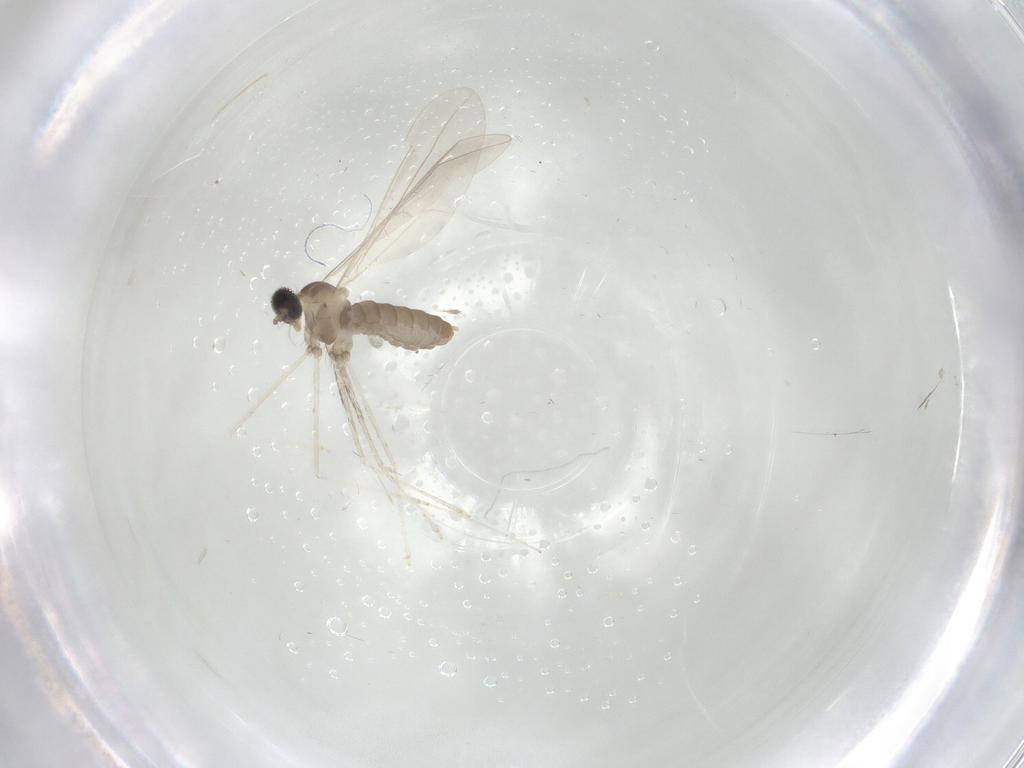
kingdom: Animalia
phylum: Arthropoda
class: Insecta
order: Diptera
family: Cecidomyiidae
